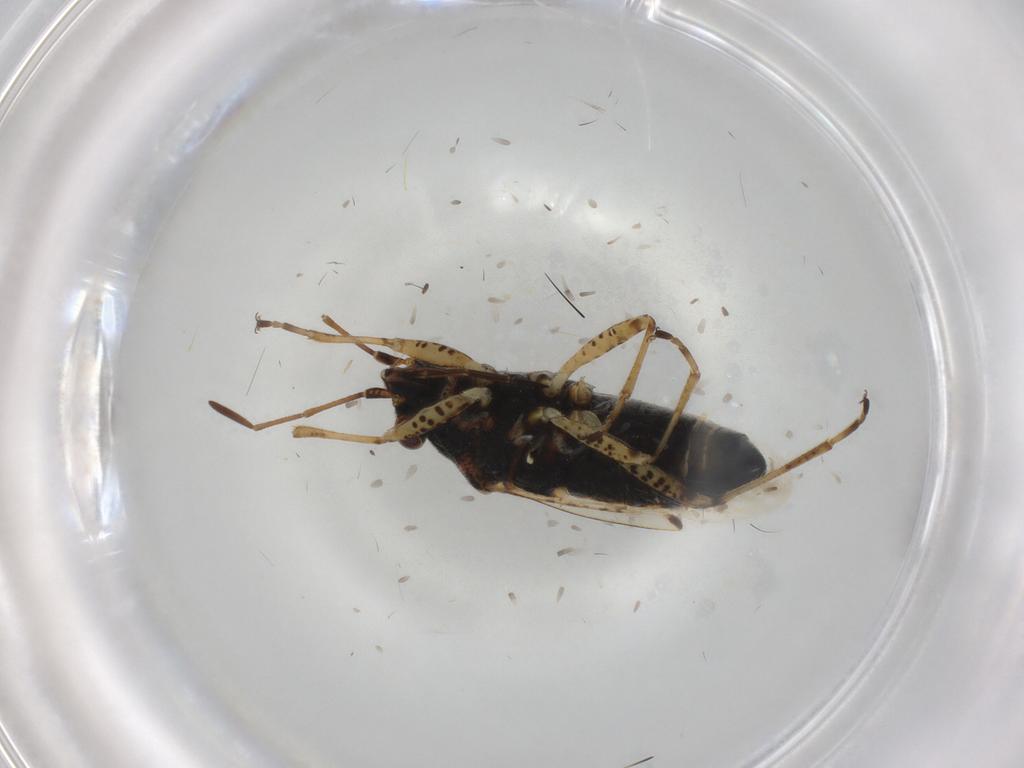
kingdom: Animalia
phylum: Arthropoda
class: Insecta
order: Hemiptera
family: Lygaeidae
